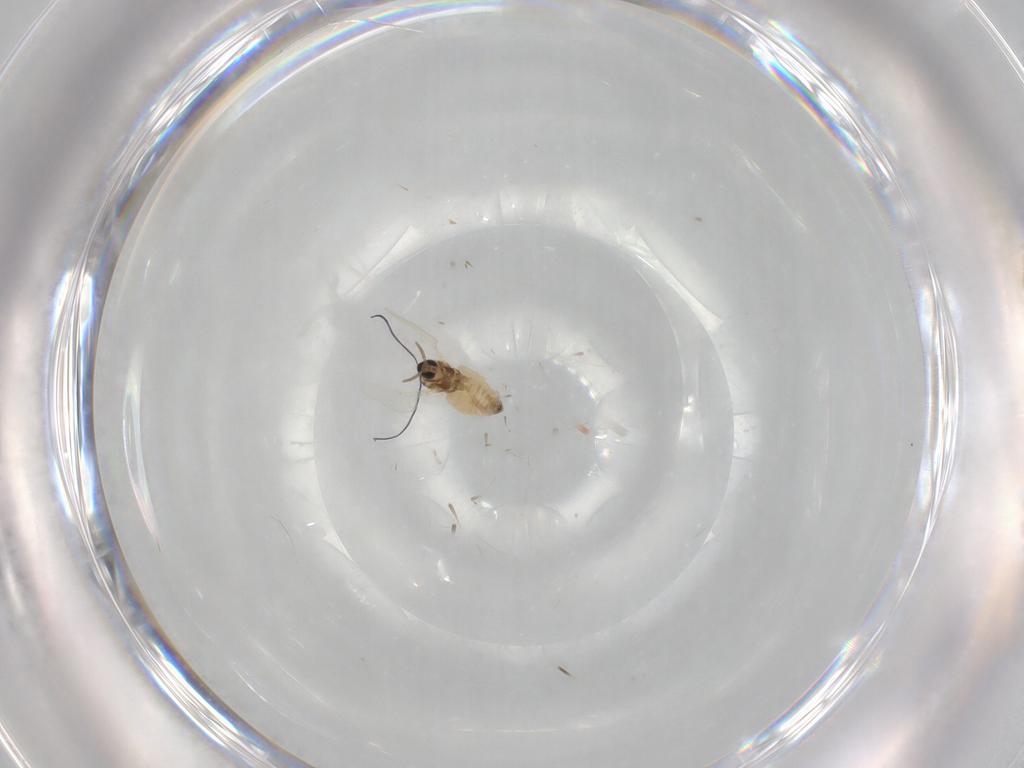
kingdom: Animalia
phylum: Arthropoda
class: Insecta
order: Diptera
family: Cecidomyiidae
